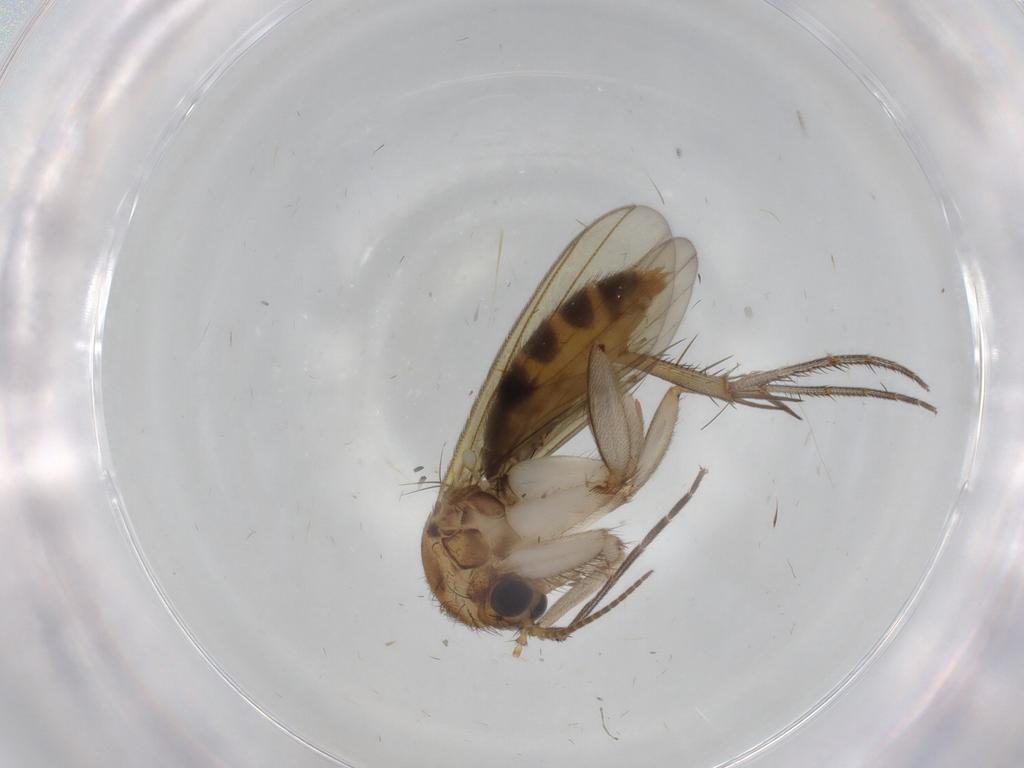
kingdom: Animalia
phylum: Arthropoda
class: Insecta
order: Diptera
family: Psychodidae
